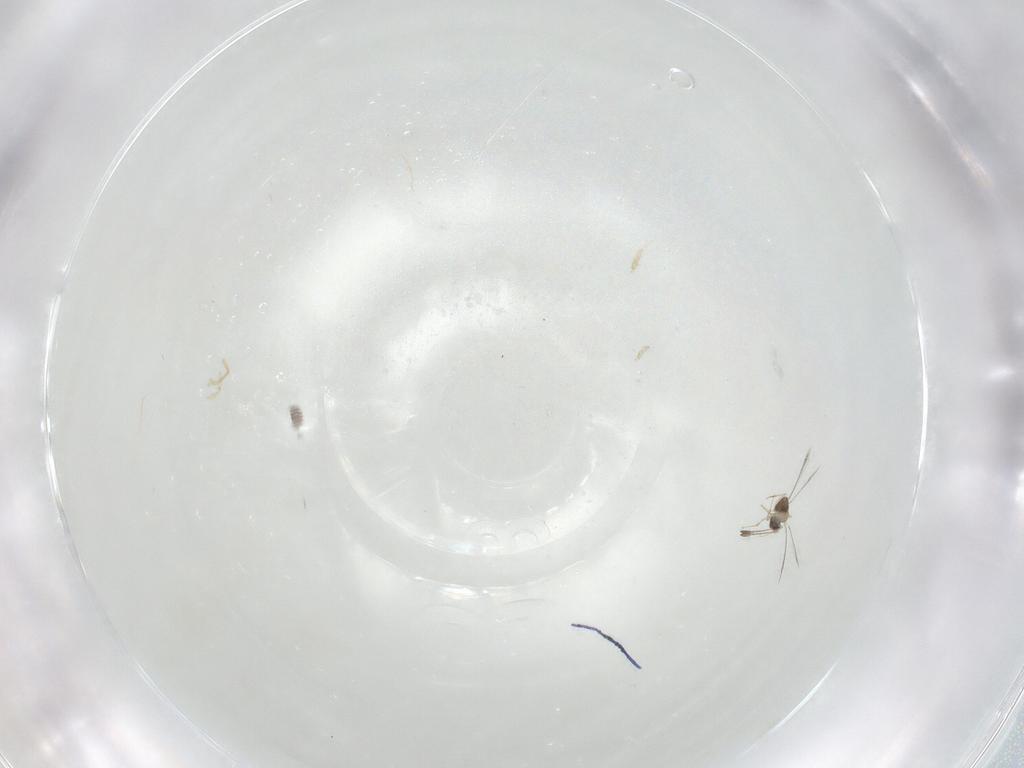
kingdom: Animalia
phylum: Arthropoda
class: Insecta
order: Hymenoptera
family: Mymaridae
